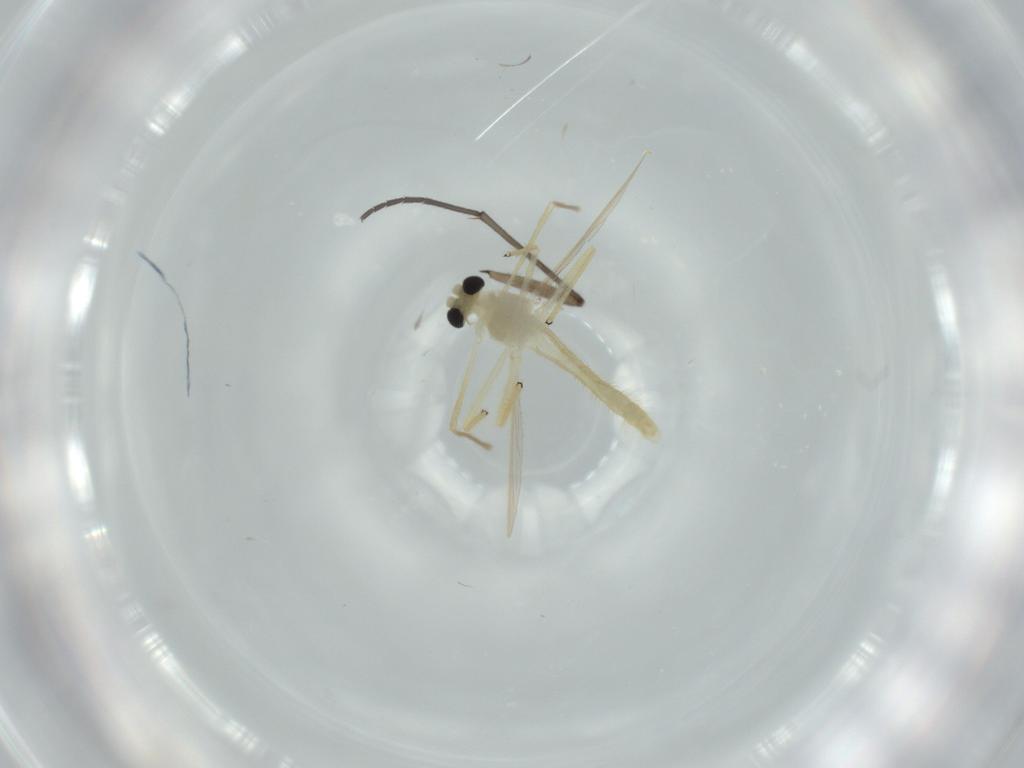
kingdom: Animalia
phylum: Arthropoda
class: Insecta
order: Diptera
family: Chironomidae
